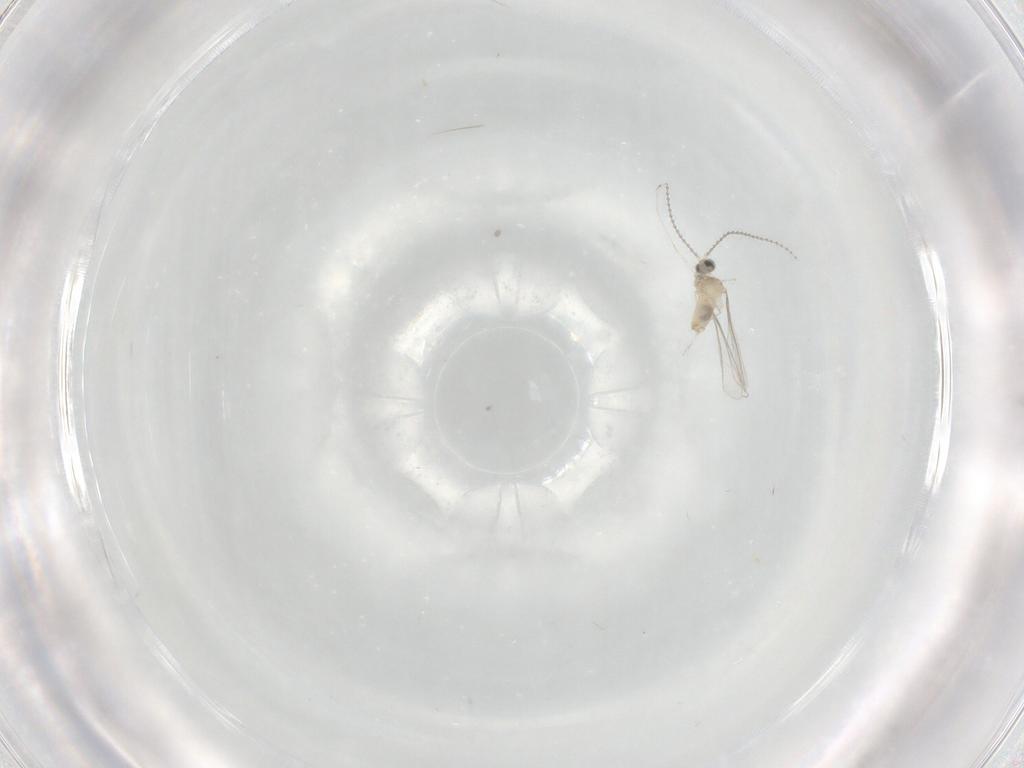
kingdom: Animalia
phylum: Arthropoda
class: Insecta
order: Diptera
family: Cecidomyiidae
